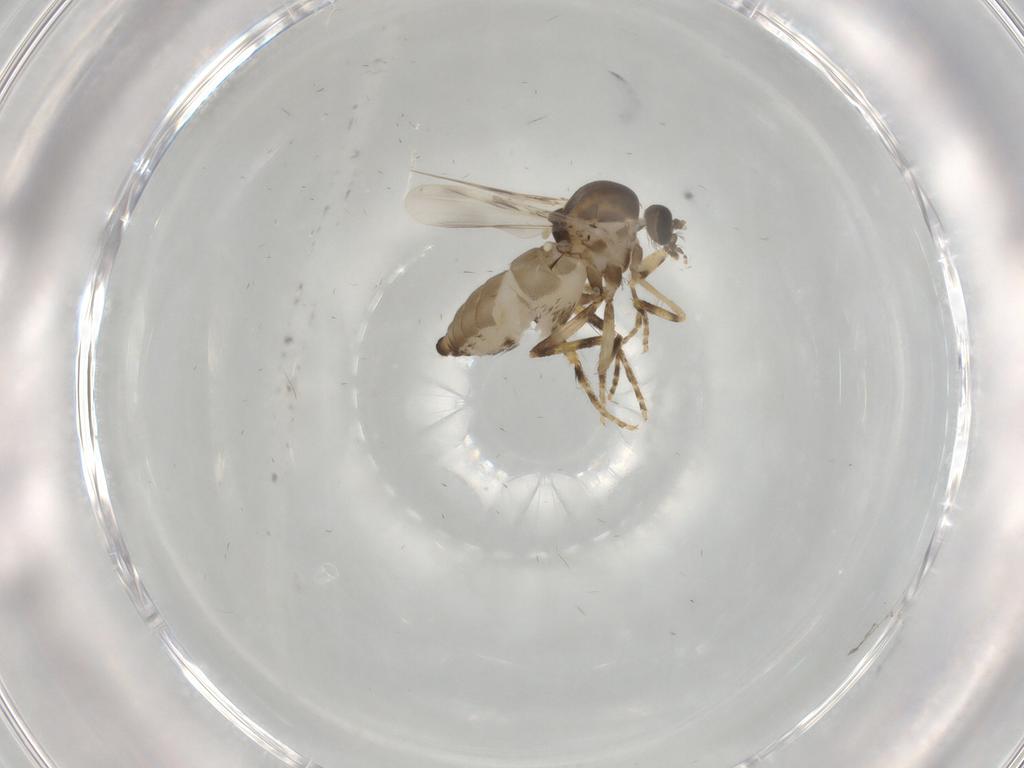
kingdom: Animalia
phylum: Arthropoda
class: Insecta
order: Diptera
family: Ceratopogonidae
